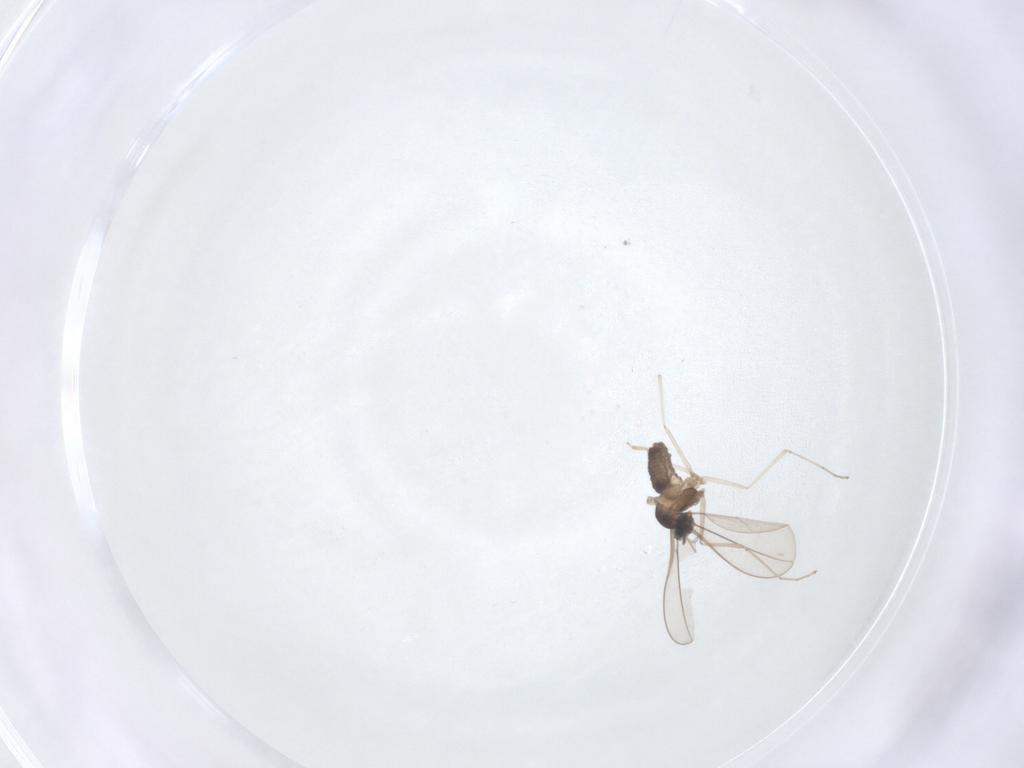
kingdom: Animalia
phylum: Arthropoda
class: Insecta
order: Diptera
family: Cecidomyiidae
